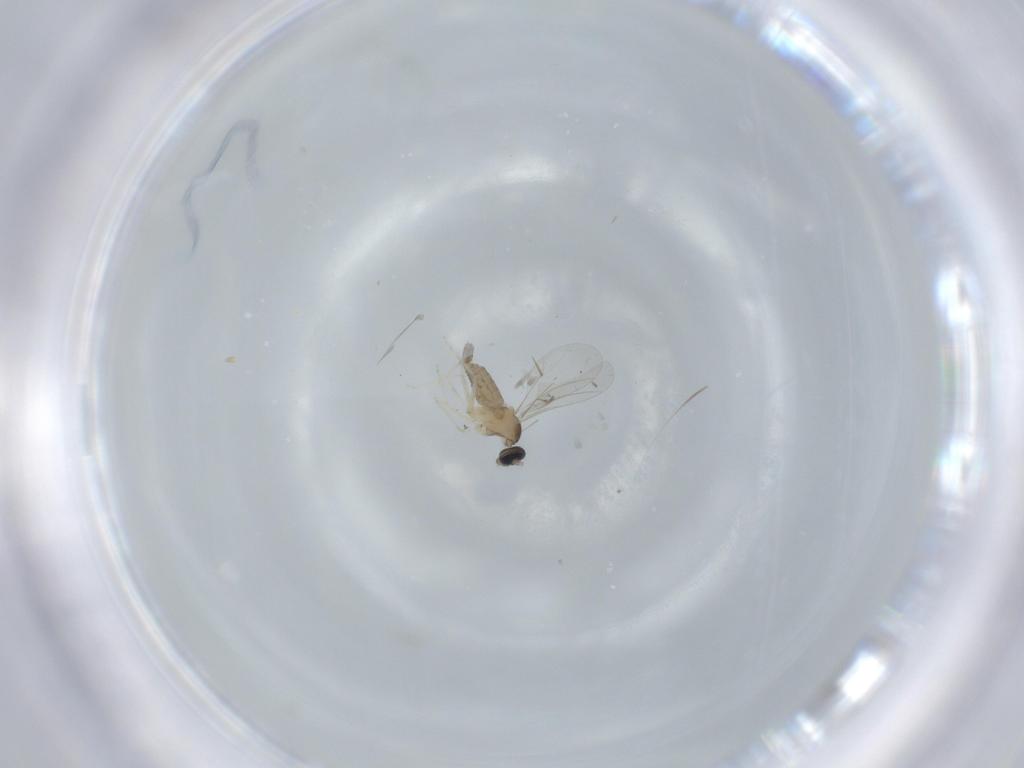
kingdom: Animalia
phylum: Arthropoda
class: Insecta
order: Diptera
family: Cecidomyiidae
